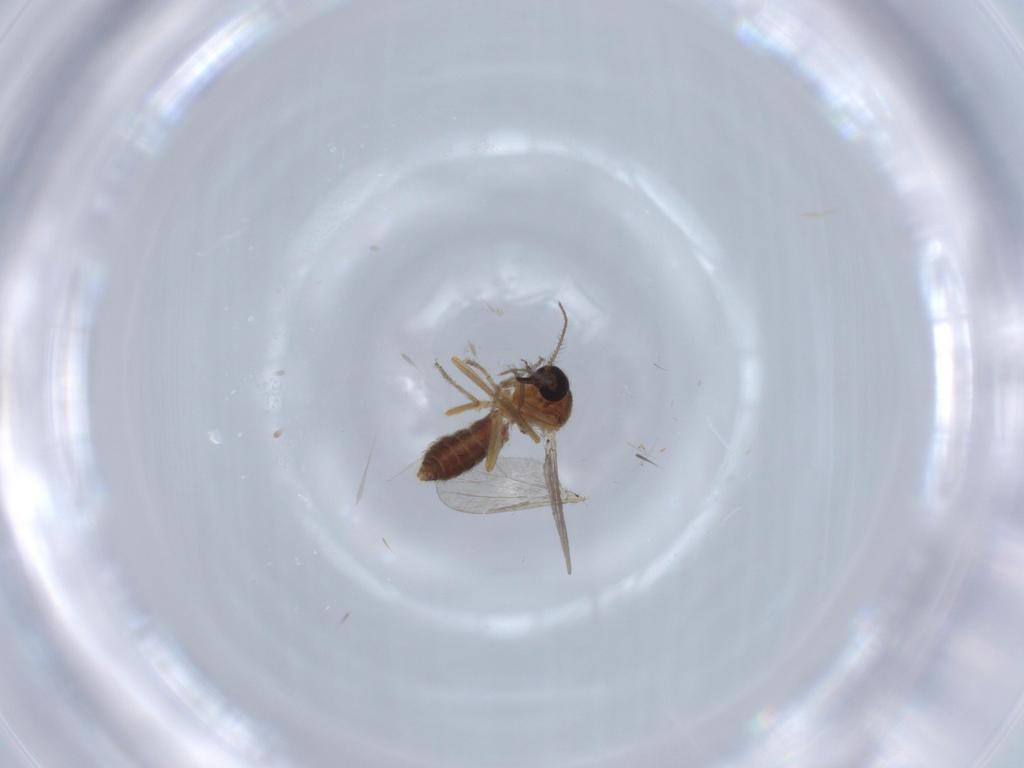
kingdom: Animalia
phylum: Arthropoda
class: Insecta
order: Diptera
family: Ceratopogonidae
